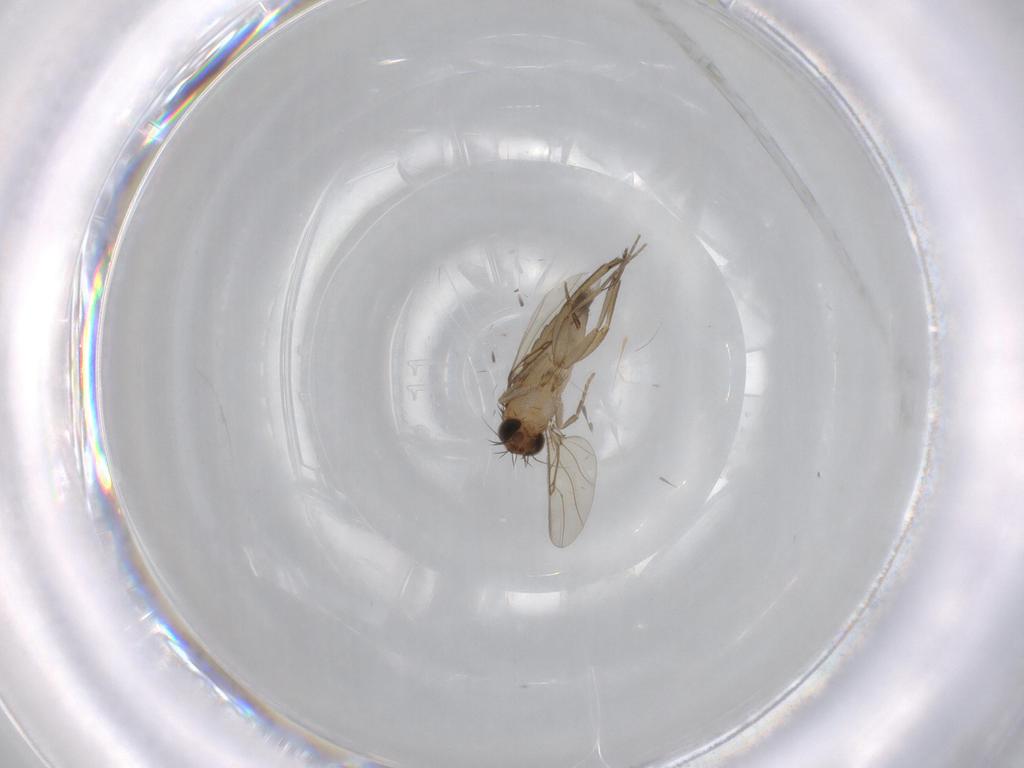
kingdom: Animalia
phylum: Arthropoda
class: Insecta
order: Diptera
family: Phoridae
